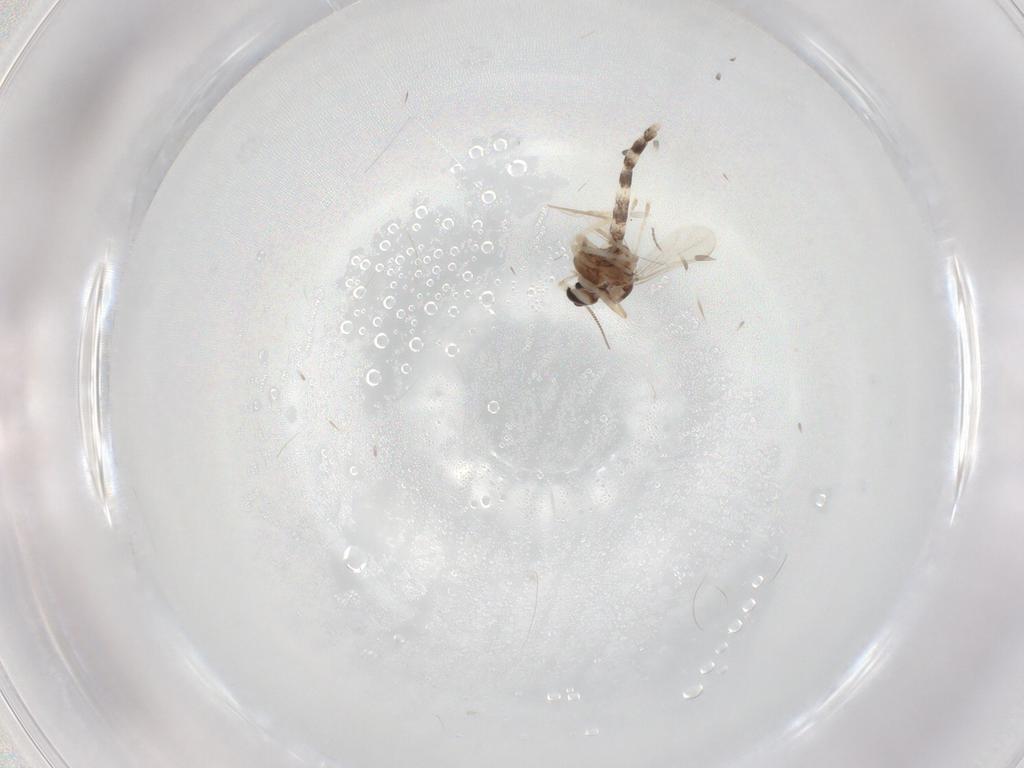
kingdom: Animalia
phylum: Arthropoda
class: Insecta
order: Diptera
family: Chironomidae
